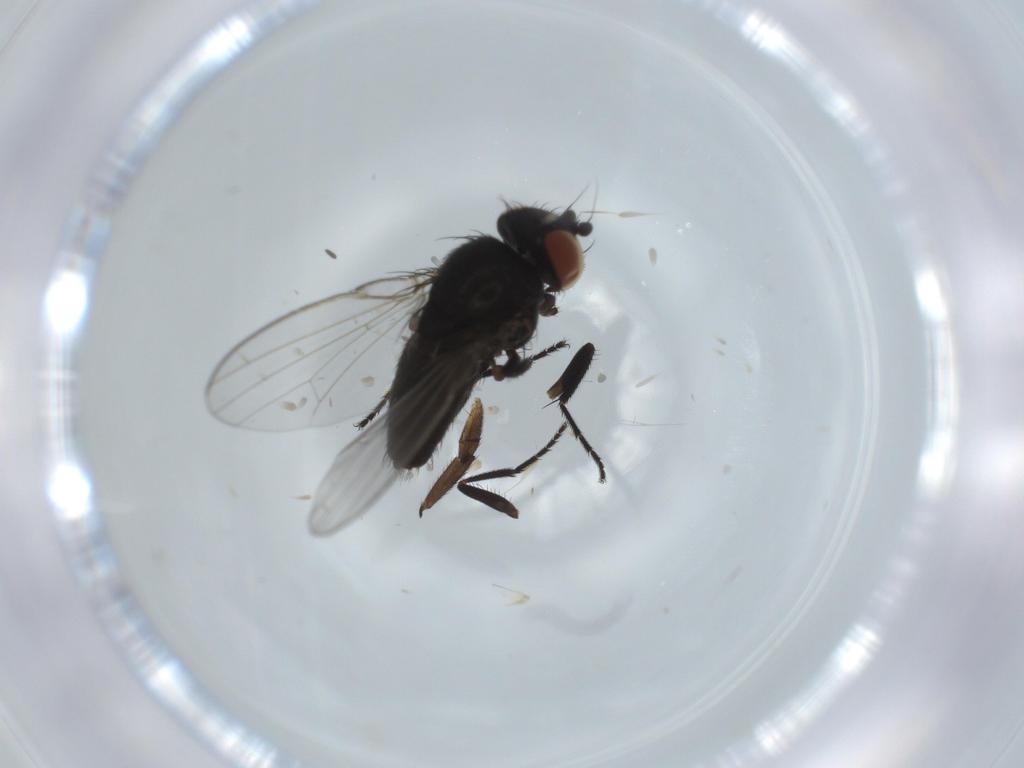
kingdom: Animalia
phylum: Arthropoda
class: Insecta
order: Diptera
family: Milichiidae
